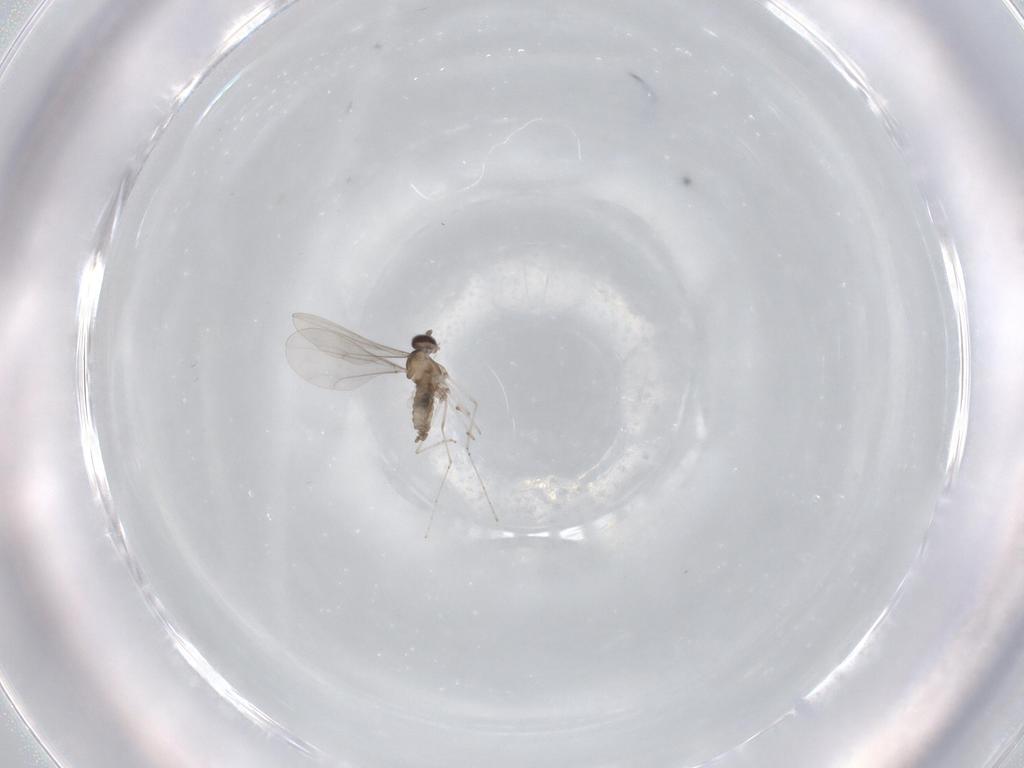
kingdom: Animalia
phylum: Arthropoda
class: Insecta
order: Diptera
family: Cecidomyiidae
